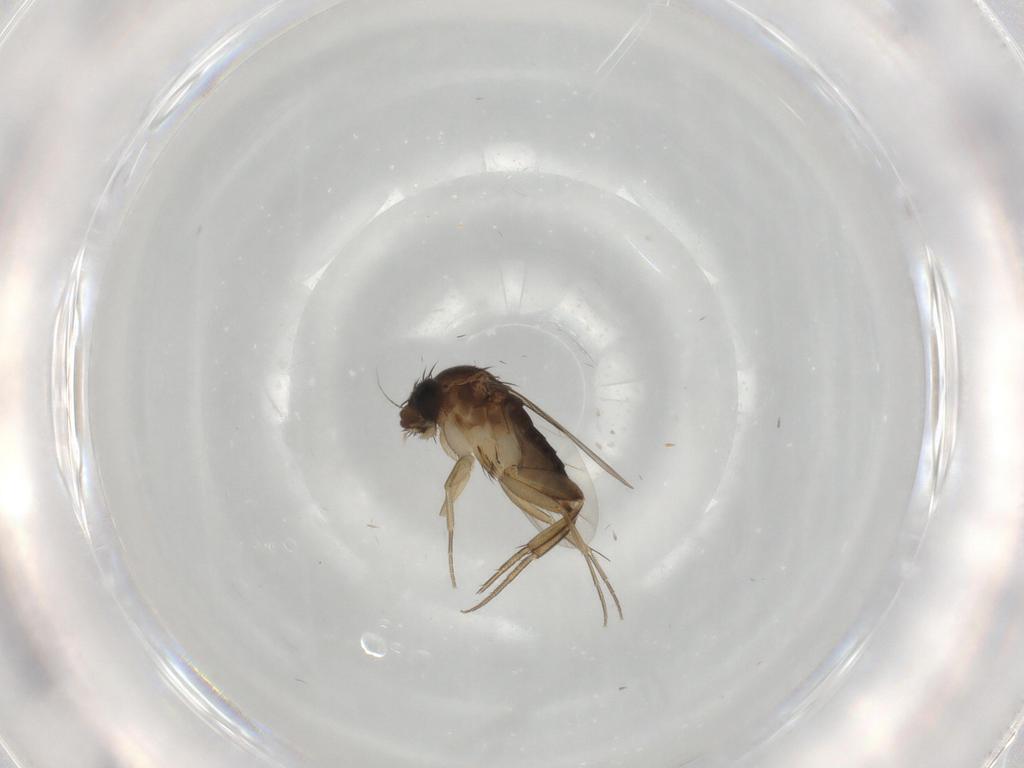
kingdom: Animalia
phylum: Arthropoda
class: Insecta
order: Diptera
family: Phoridae
